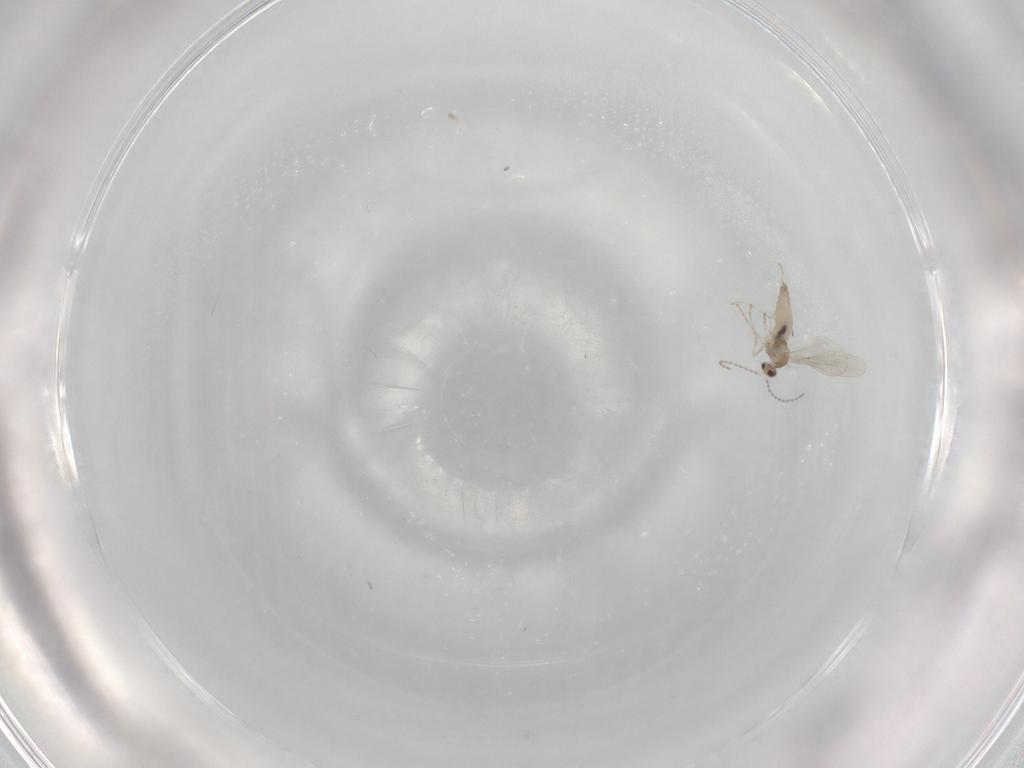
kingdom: Animalia
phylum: Arthropoda
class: Insecta
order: Diptera
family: Cecidomyiidae
